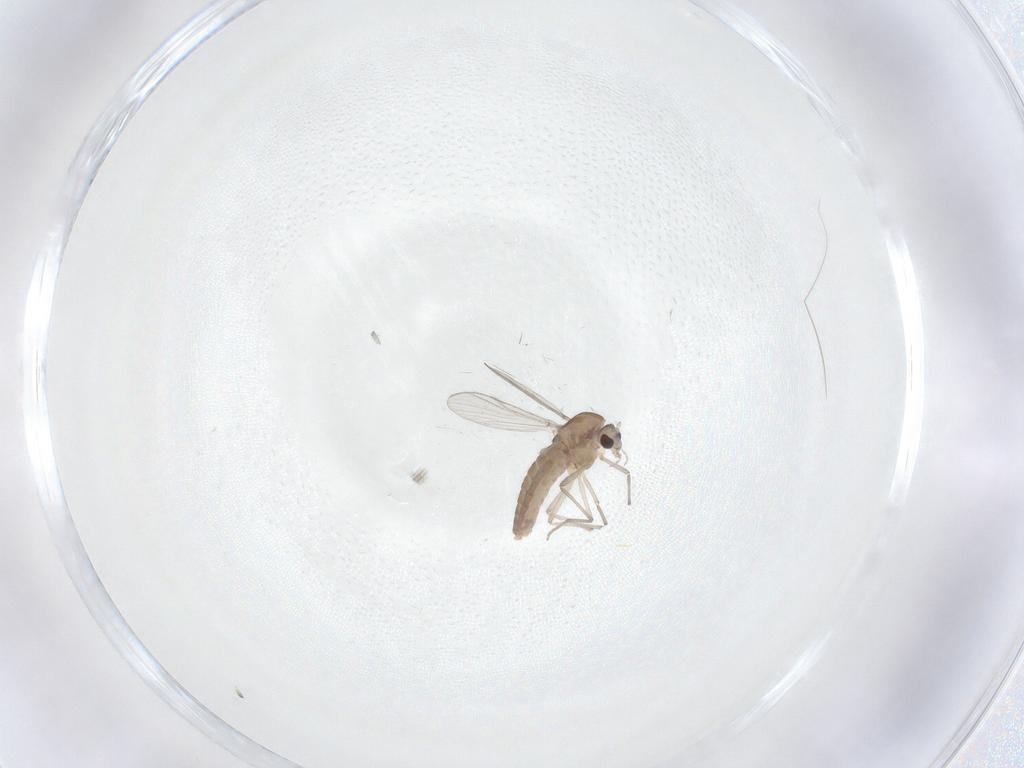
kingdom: Animalia
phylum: Arthropoda
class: Insecta
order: Diptera
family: Chironomidae
